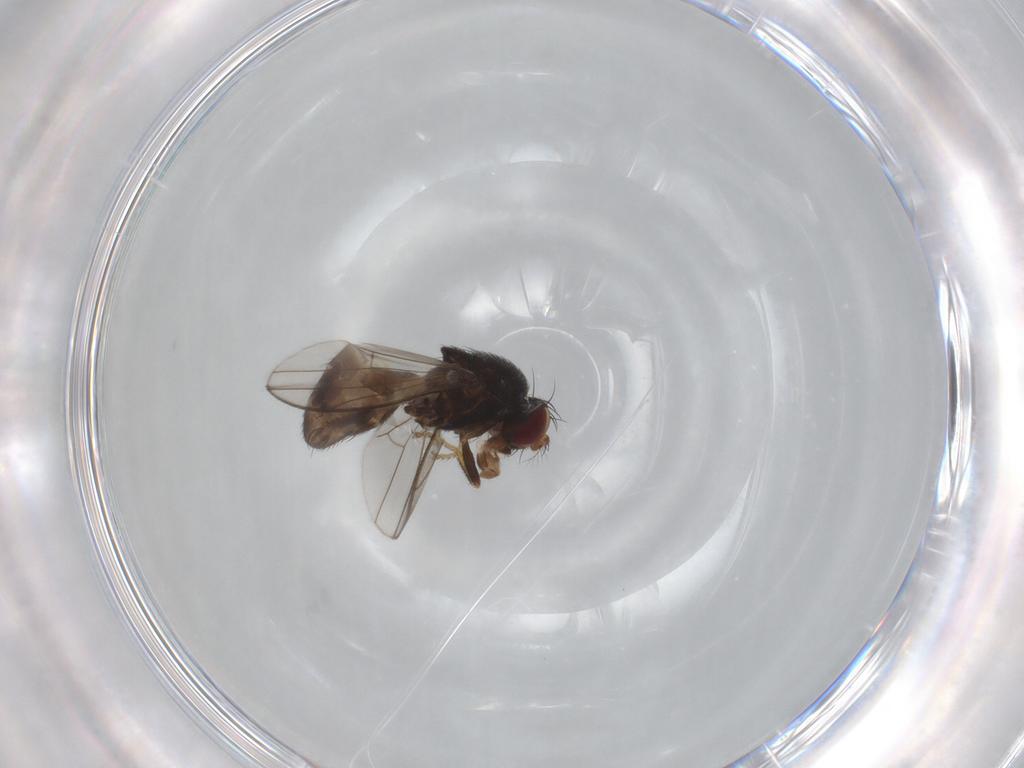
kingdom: Animalia
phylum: Arthropoda
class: Insecta
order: Diptera
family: Ephydridae
